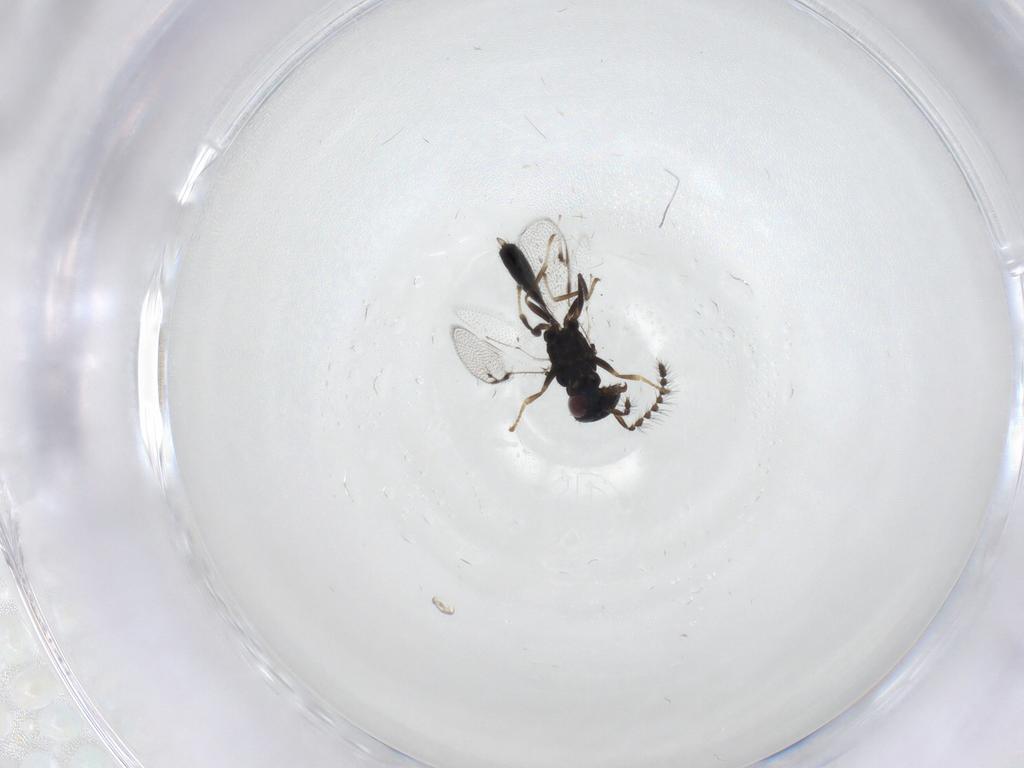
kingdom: Animalia
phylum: Arthropoda
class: Insecta
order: Hymenoptera
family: Pirenidae
